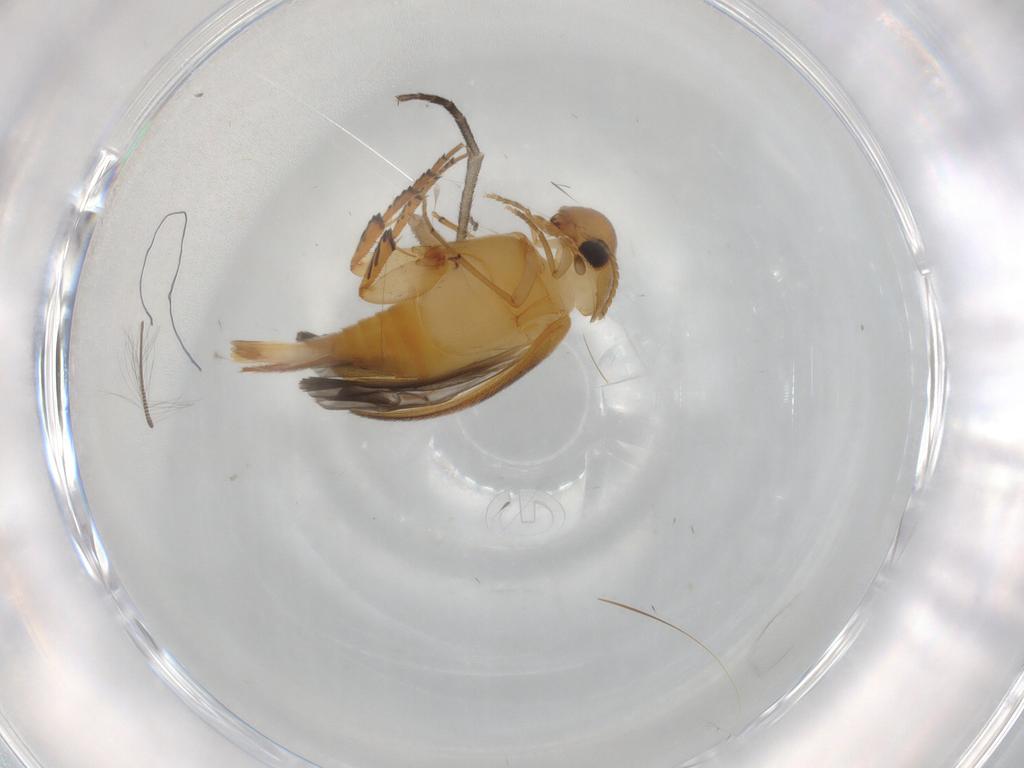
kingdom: Animalia
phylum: Arthropoda
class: Insecta
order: Coleoptera
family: Mordellidae
